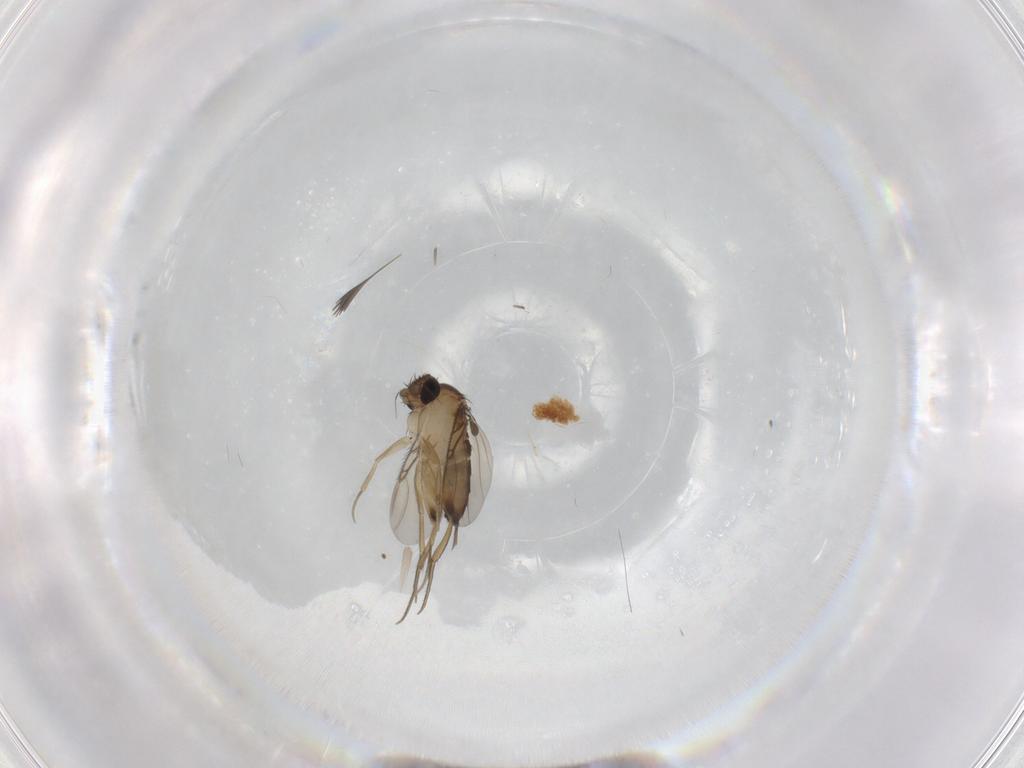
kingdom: Animalia
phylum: Arthropoda
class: Insecta
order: Diptera
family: Phoridae
